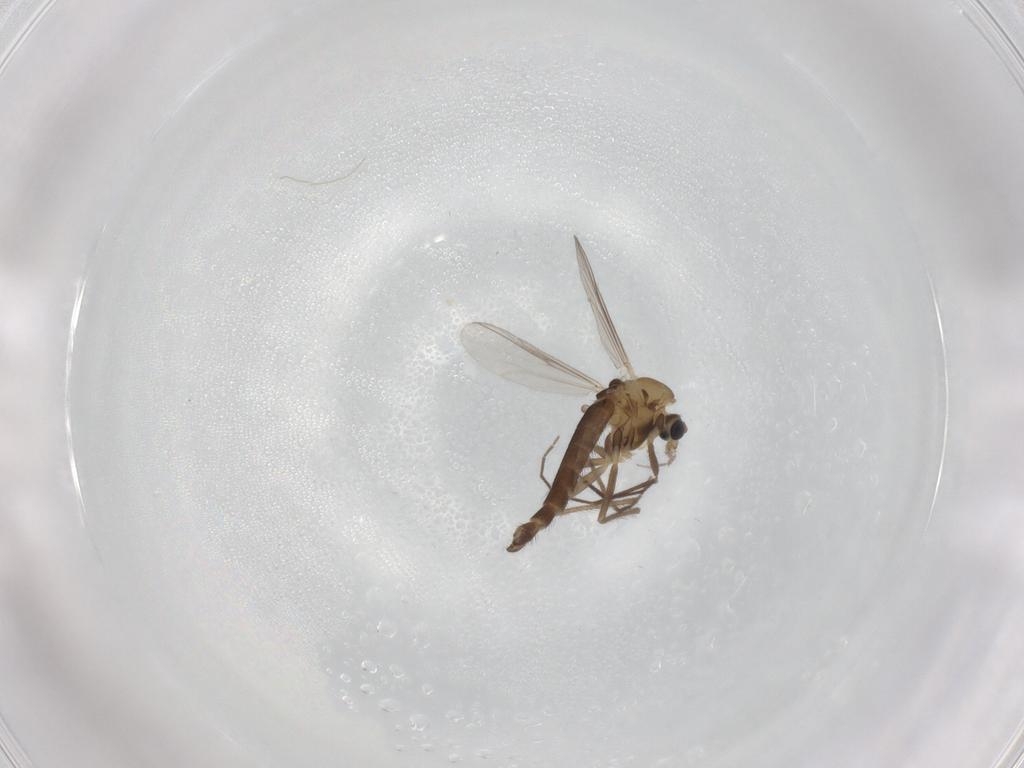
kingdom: Animalia
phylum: Arthropoda
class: Insecta
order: Diptera
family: Chironomidae
